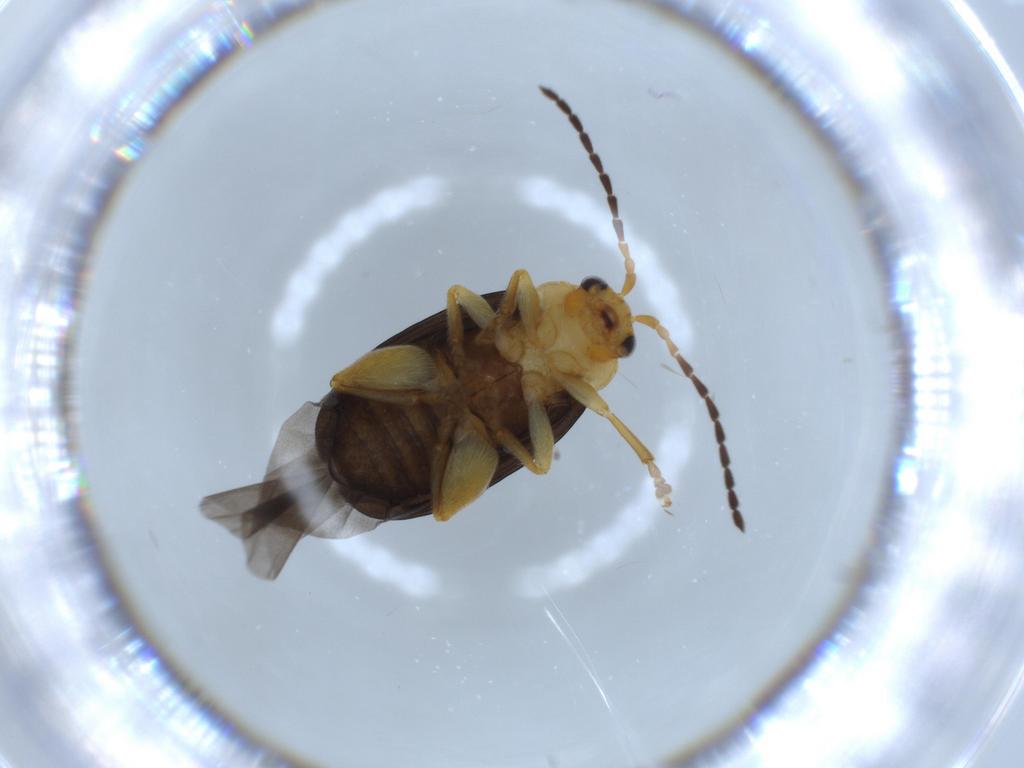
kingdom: Animalia
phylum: Arthropoda
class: Insecta
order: Coleoptera
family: Chrysomelidae
